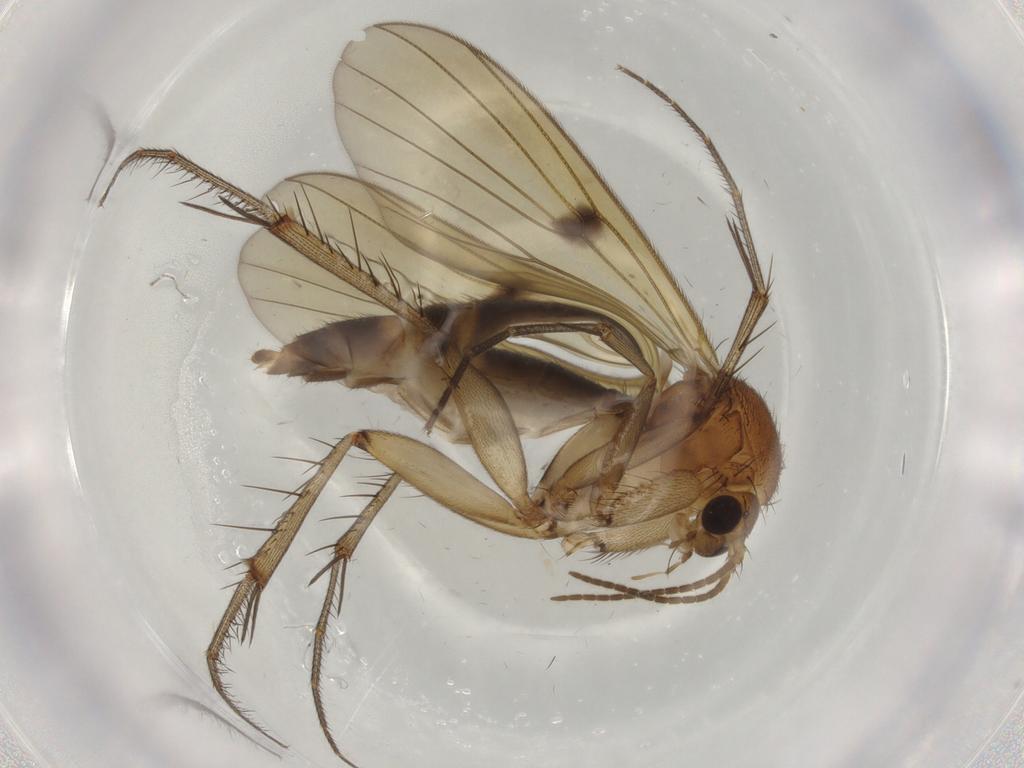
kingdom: Animalia
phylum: Arthropoda
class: Insecta
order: Diptera
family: Mycetophilidae
